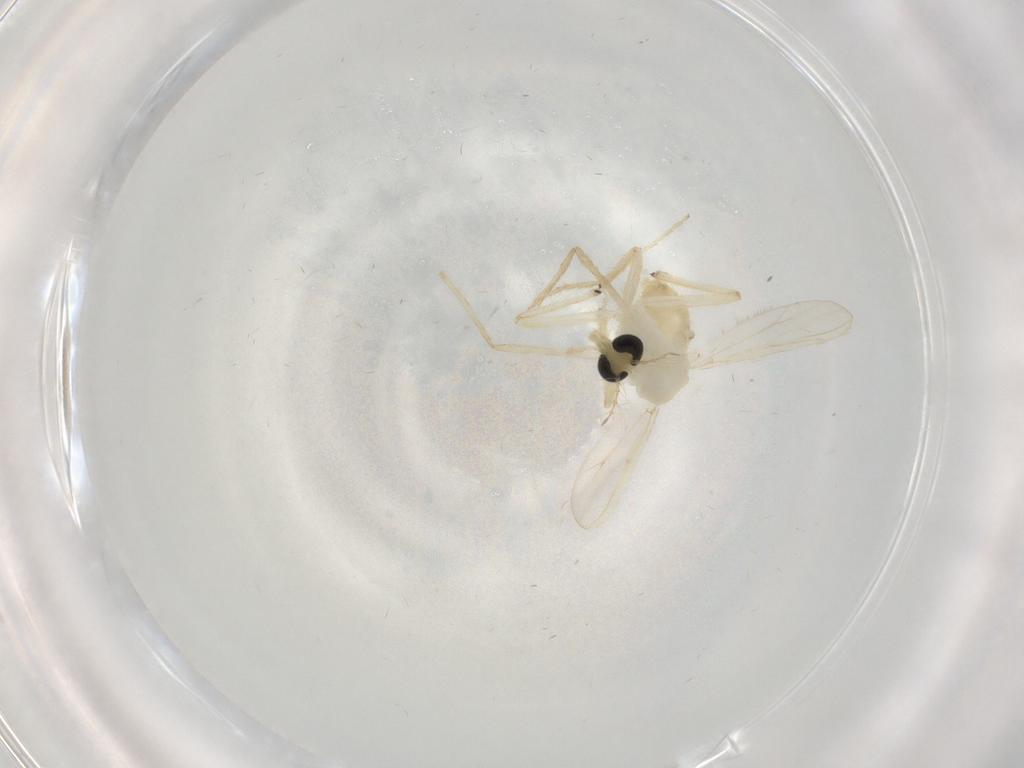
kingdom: Animalia
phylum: Arthropoda
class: Insecta
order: Diptera
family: Chironomidae
